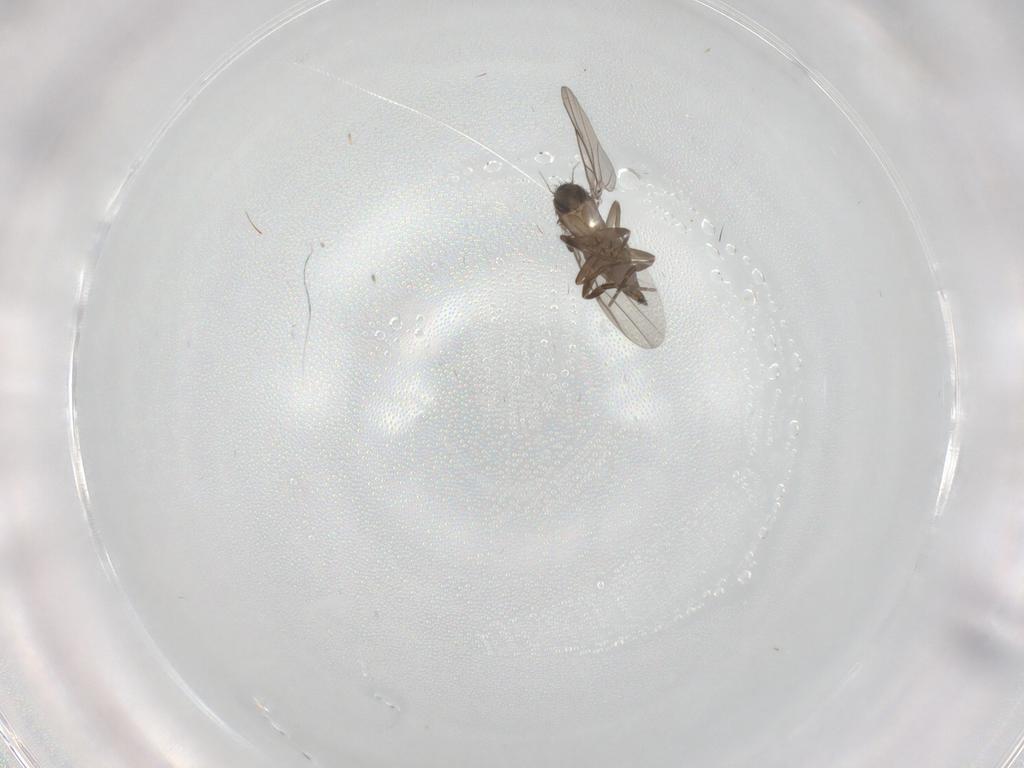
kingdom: Animalia
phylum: Arthropoda
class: Insecta
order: Diptera
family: Phoridae
